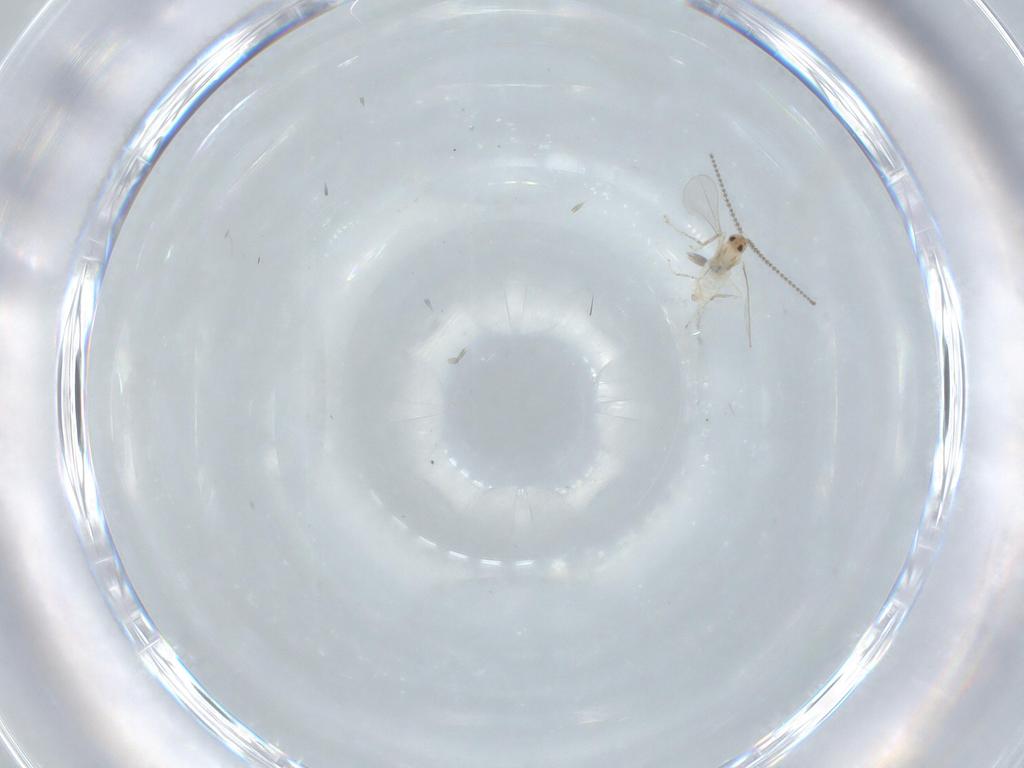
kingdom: Animalia
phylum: Arthropoda
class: Insecta
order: Diptera
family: Cecidomyiidae
